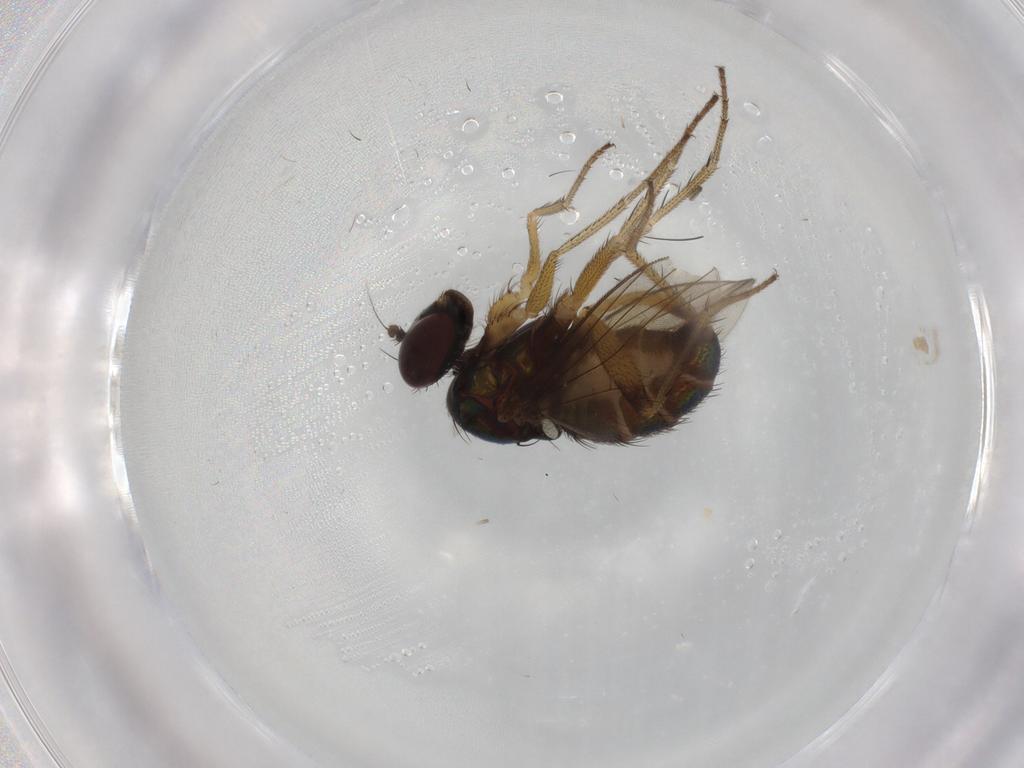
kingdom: Animalia
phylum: Arthropoda
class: Insecta
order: Diptera
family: Dolichopodidae
